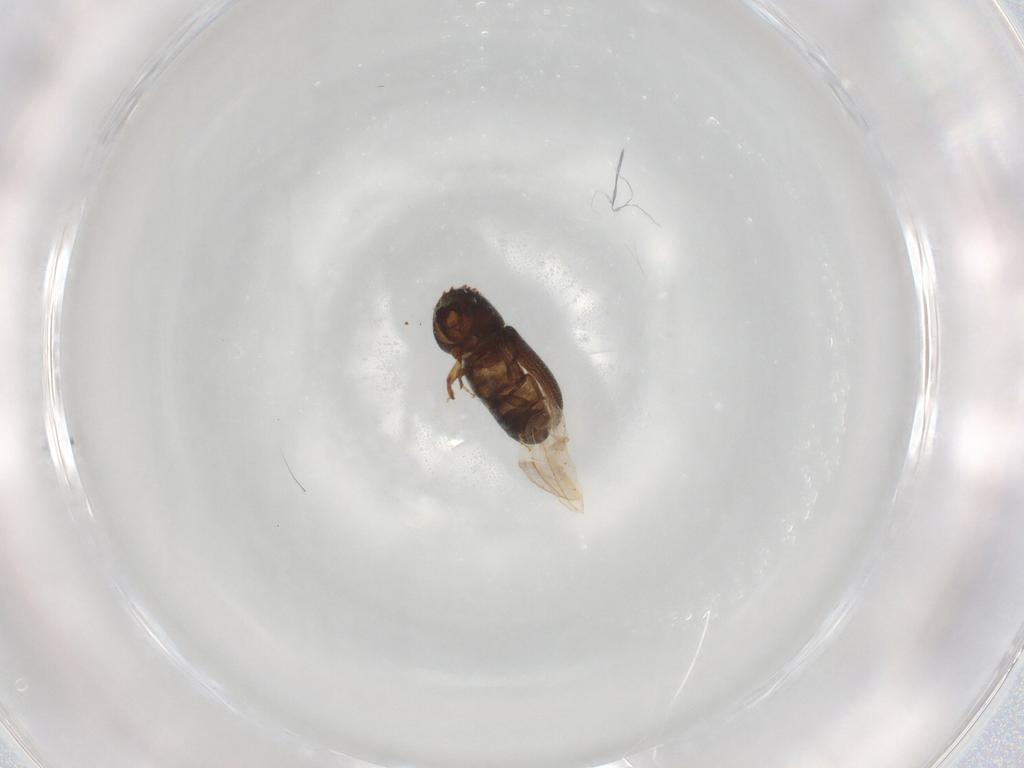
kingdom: Animalia
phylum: Arthropoda
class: Insecta
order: Coleoptera
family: Curculionidae
